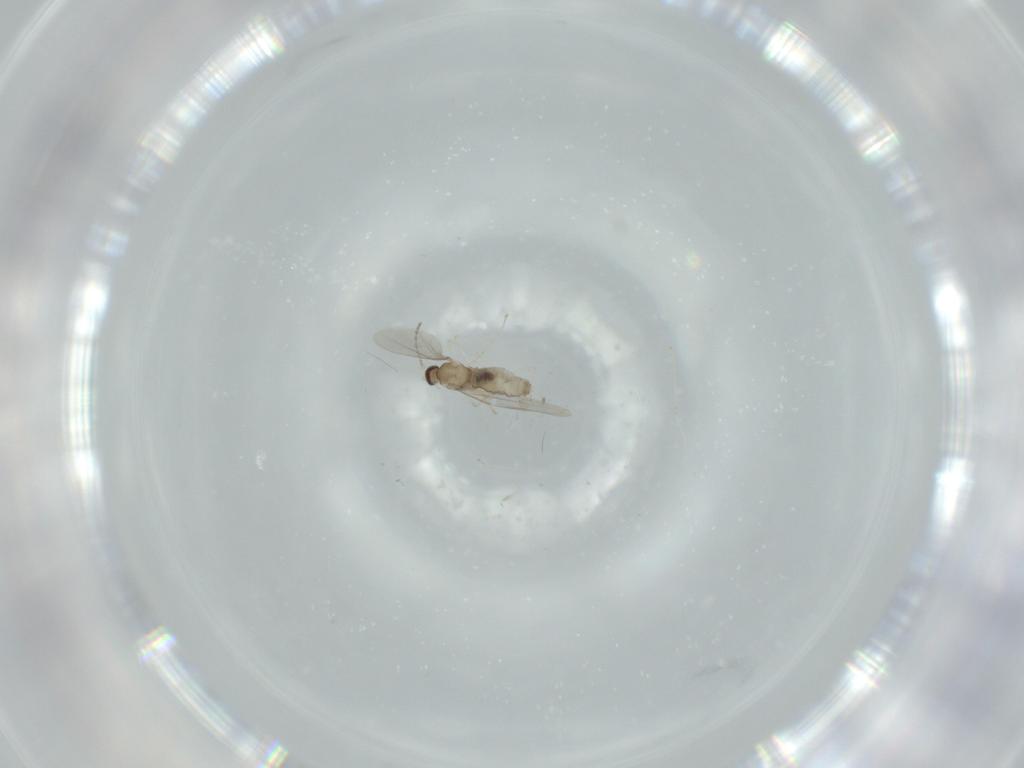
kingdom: Animalia
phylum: Arthropoda
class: Insecta
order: Diptera
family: Cecidomyiidae
